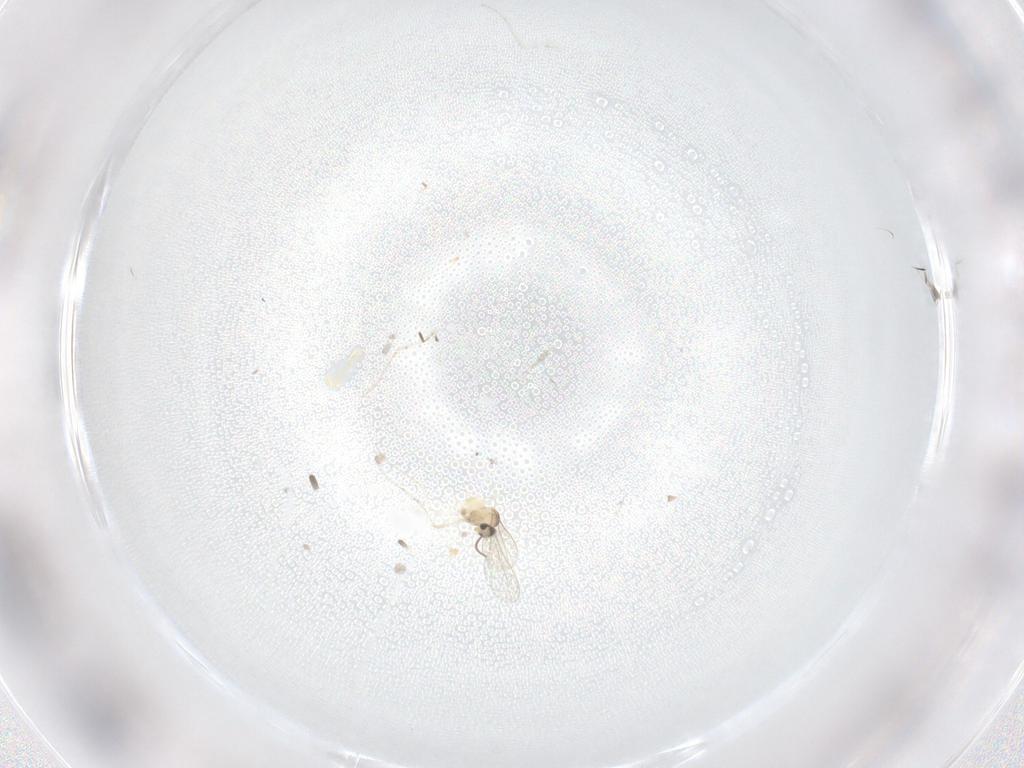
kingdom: Animalia
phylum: Arthropoda
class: Insecta
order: Diptera
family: Cecidomyiidae
